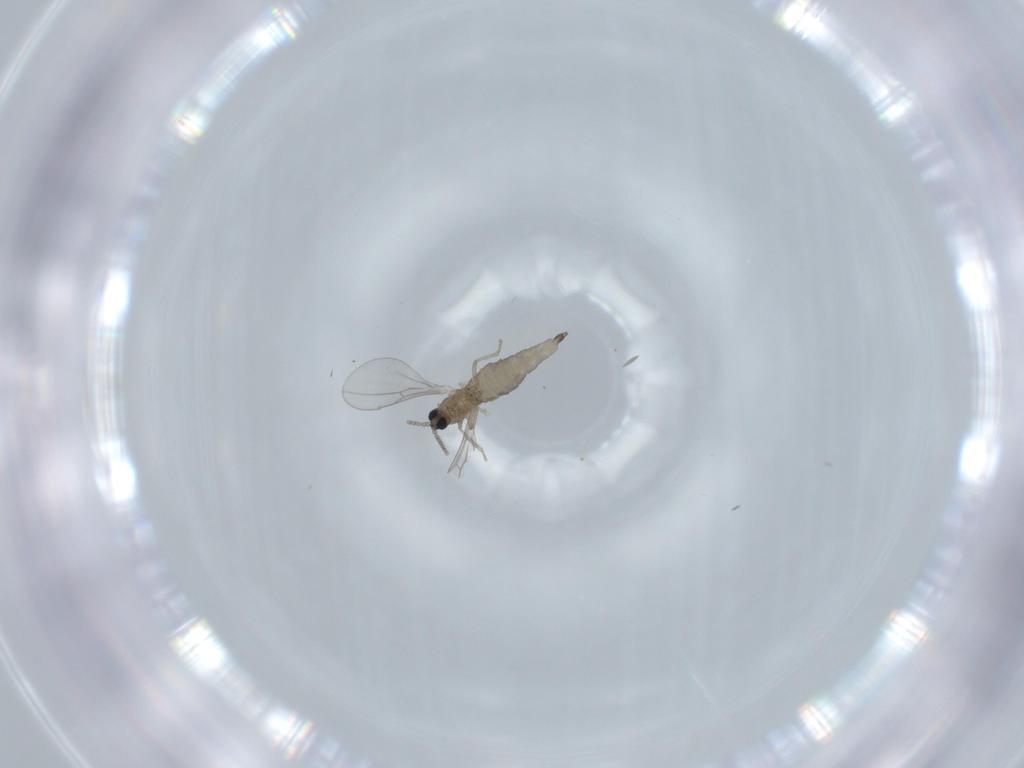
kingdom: Animalia
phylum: Arthropoda
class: Insecta
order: Diptera
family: Cecidomyiidae
